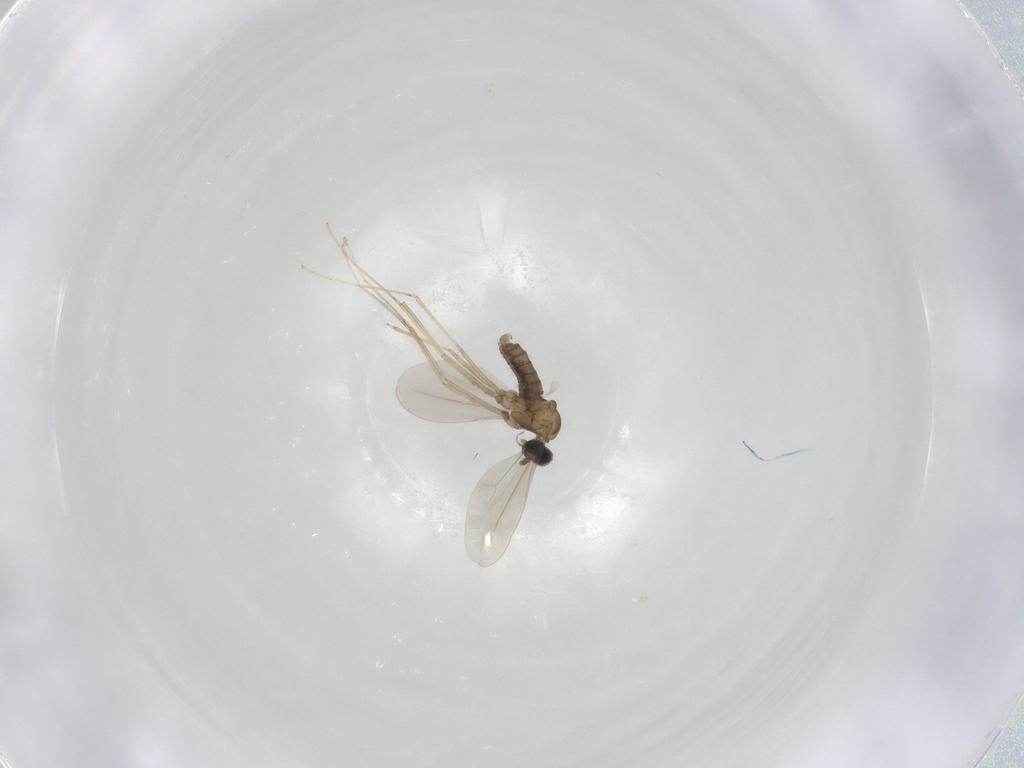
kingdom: Animalia
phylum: Arthropoda
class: Insecta
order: Diptera
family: Cecidomyiidae
